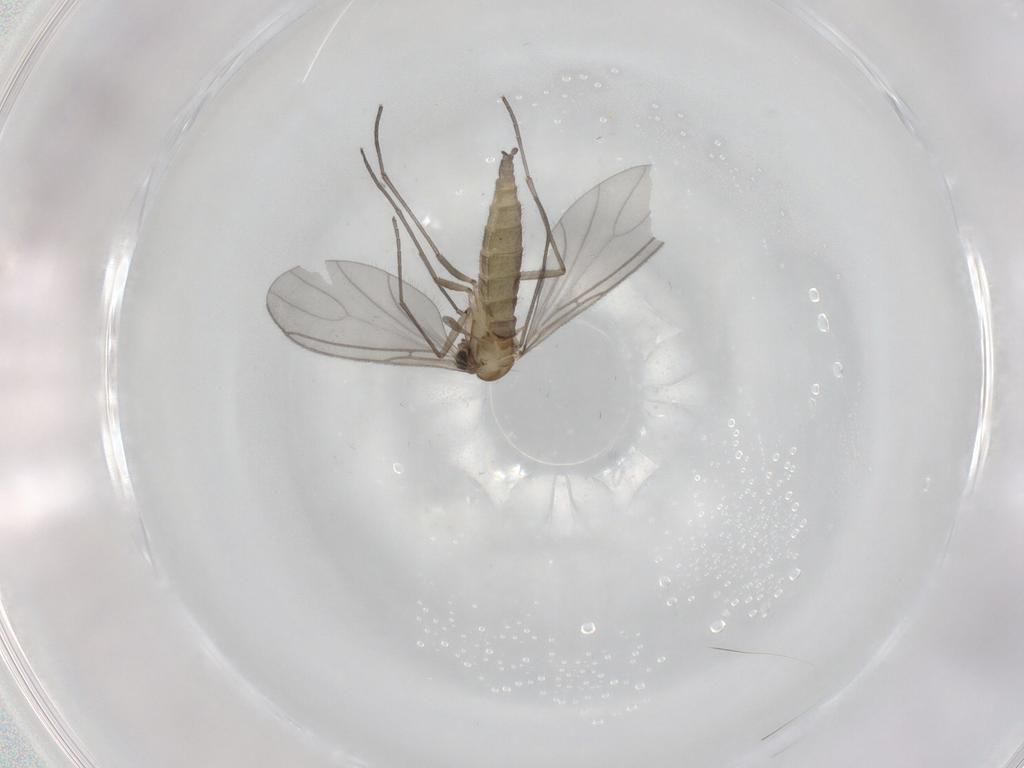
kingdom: Animalia
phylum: Arthropoda
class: Insecta
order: Diptera
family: Sciaridae
